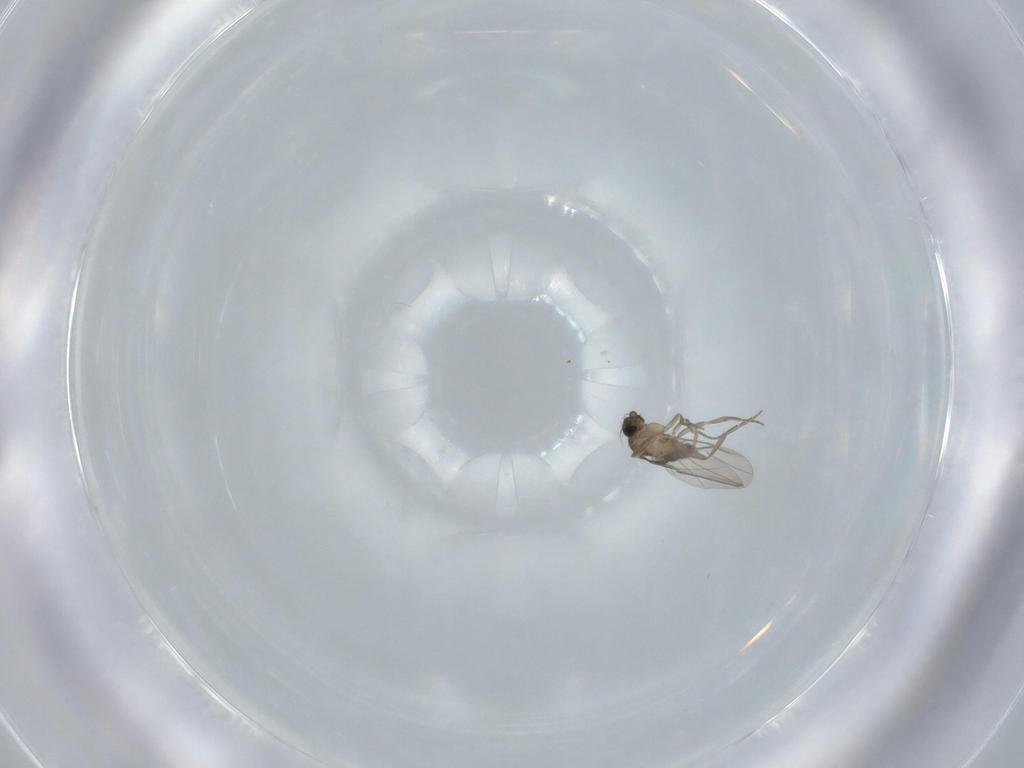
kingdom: Animalia
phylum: Arthropoda
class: Insecta
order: Diptera
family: Phoridae
